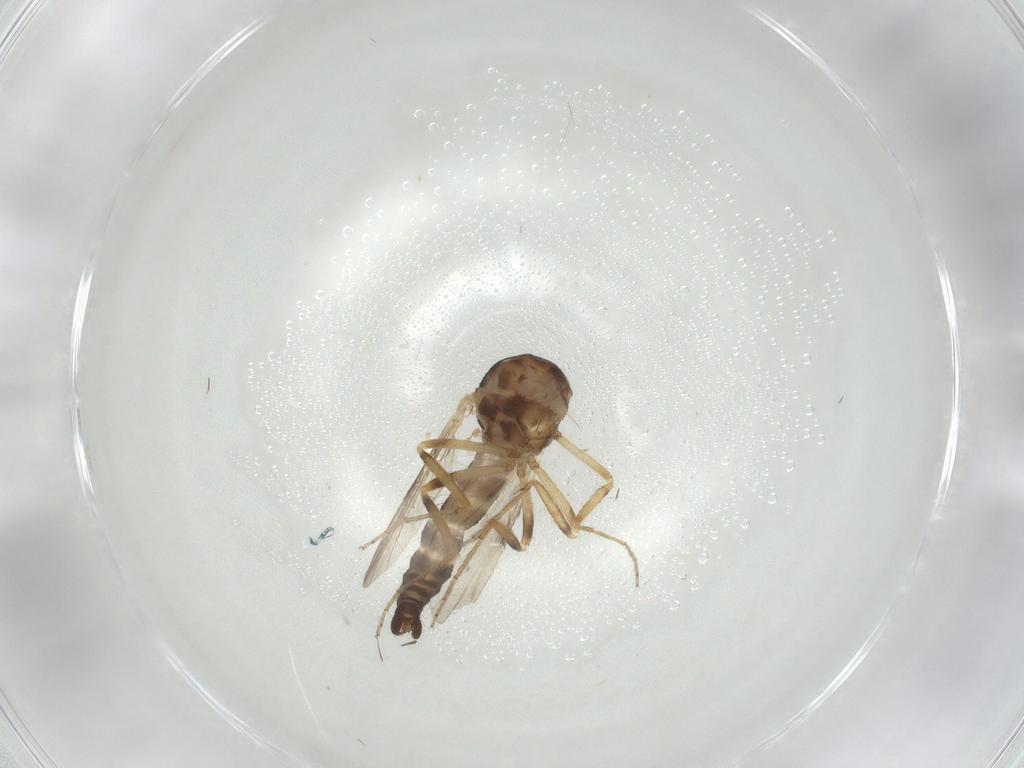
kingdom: Animalia
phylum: Arthropoda
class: Insecta
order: Diptera
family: Ceratopogonidae
